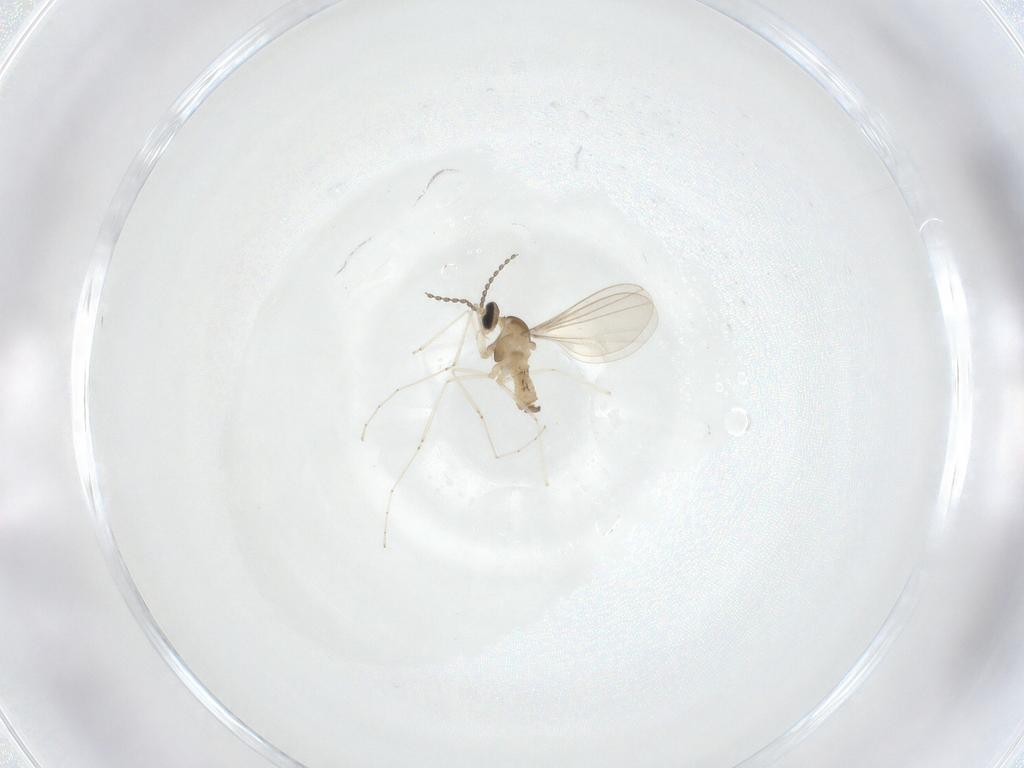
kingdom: Animalia
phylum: Arthropoda
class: Insecta
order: Diptera
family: Cecidomyiidae
